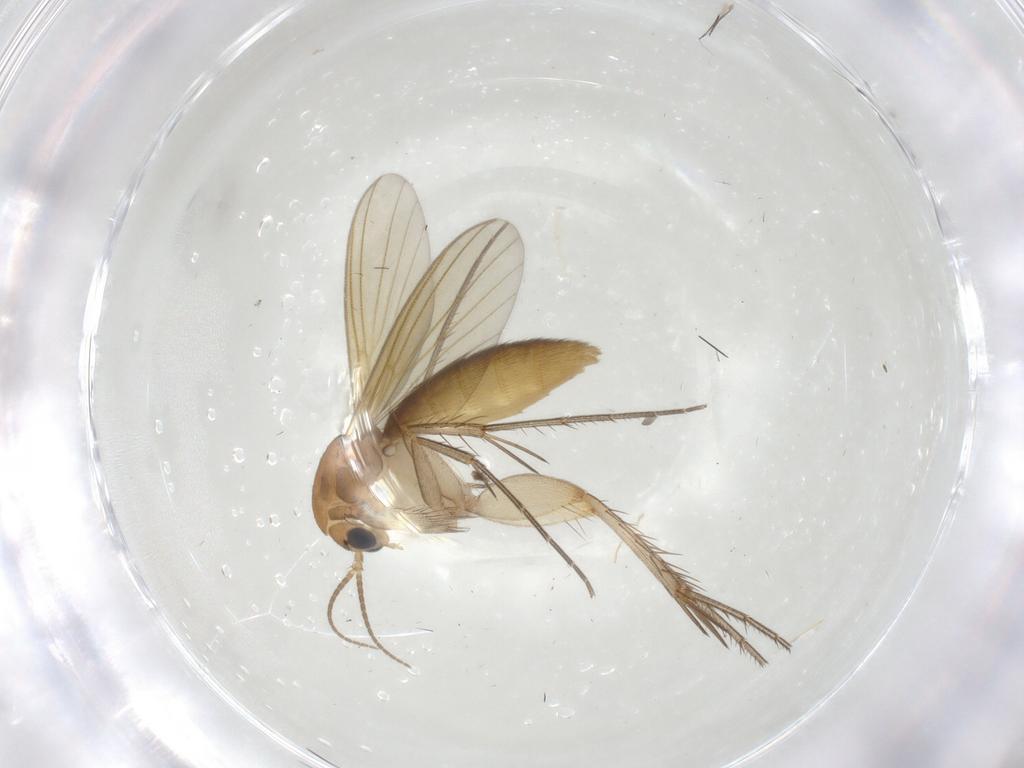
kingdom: Animalia
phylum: Arthropoda
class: Insecta
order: Diptera
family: Mycetophilidae
